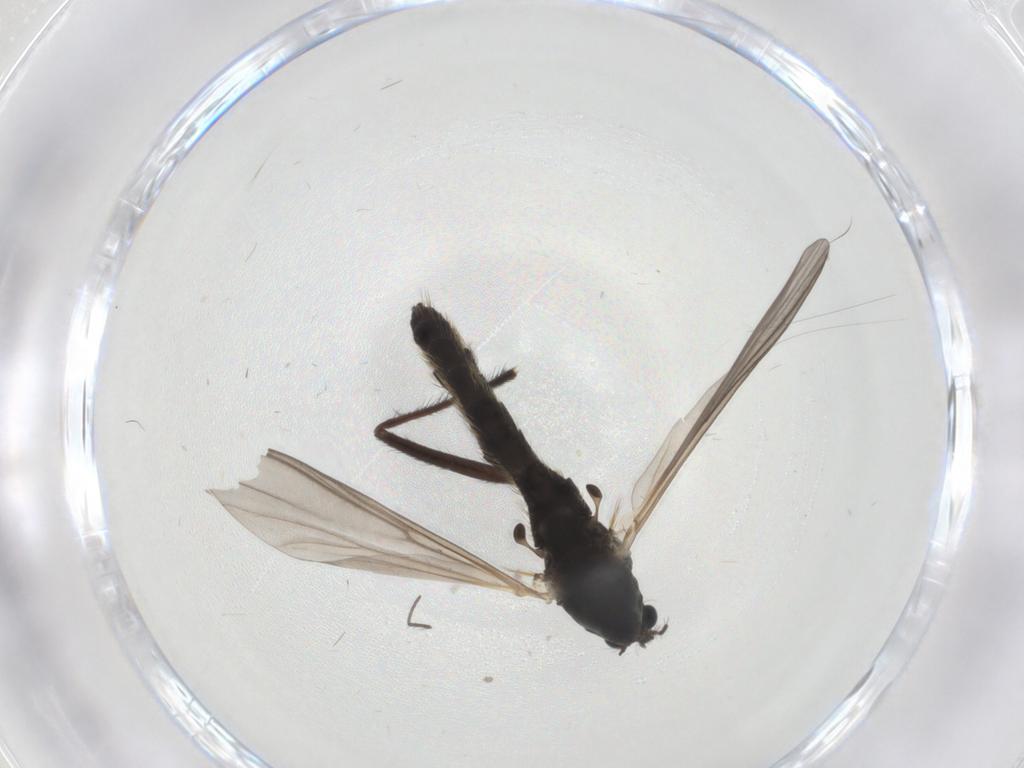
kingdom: Animalia
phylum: Arthropoda
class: Insecta
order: Diptera
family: Chironomidae
